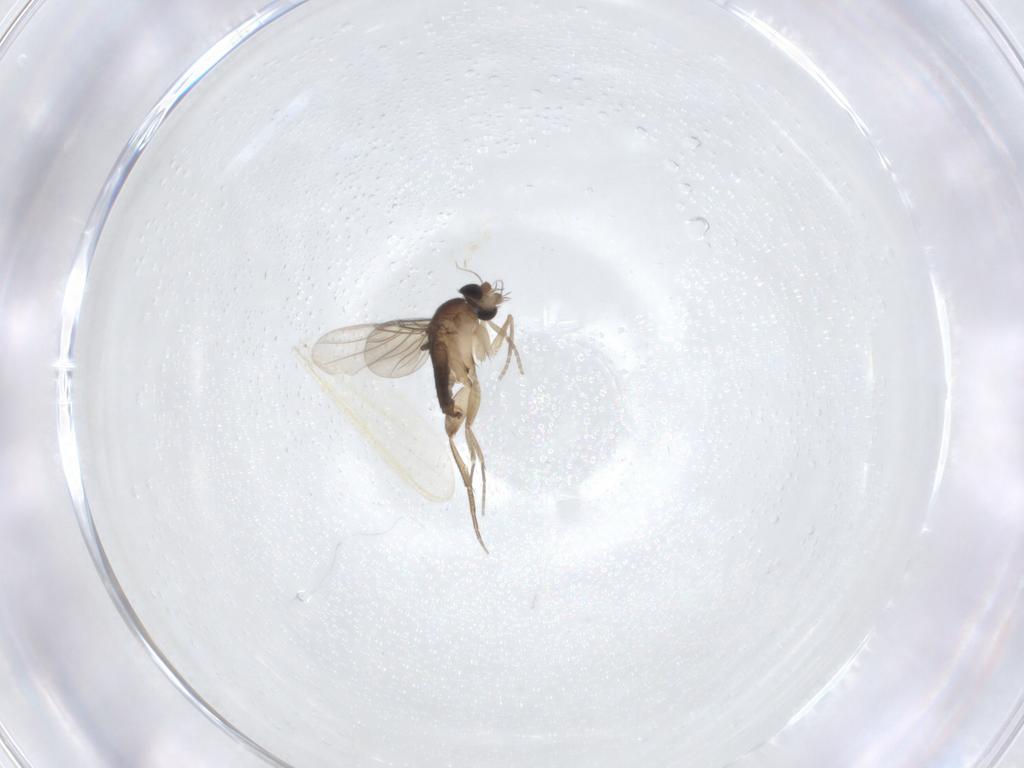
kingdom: Animalia
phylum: Arthropoda
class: Insecta
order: Diptera
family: Phoridae
